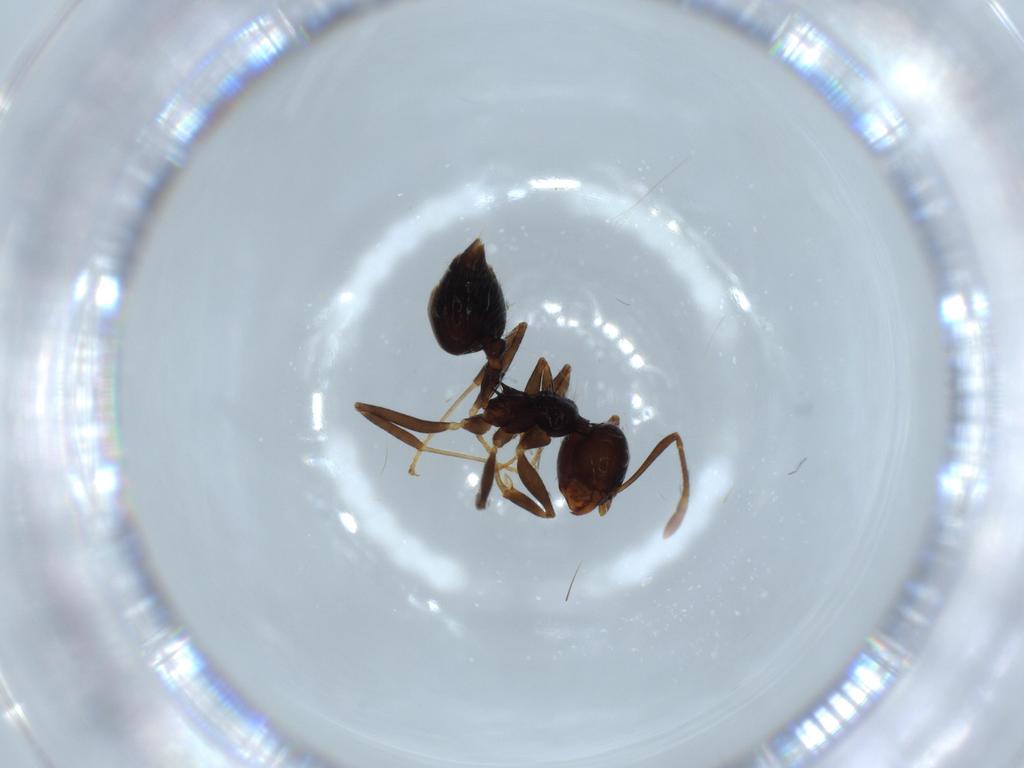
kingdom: Animalia
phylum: Arthropoda
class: Insecta
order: Hymenoptera
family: Formicidae
